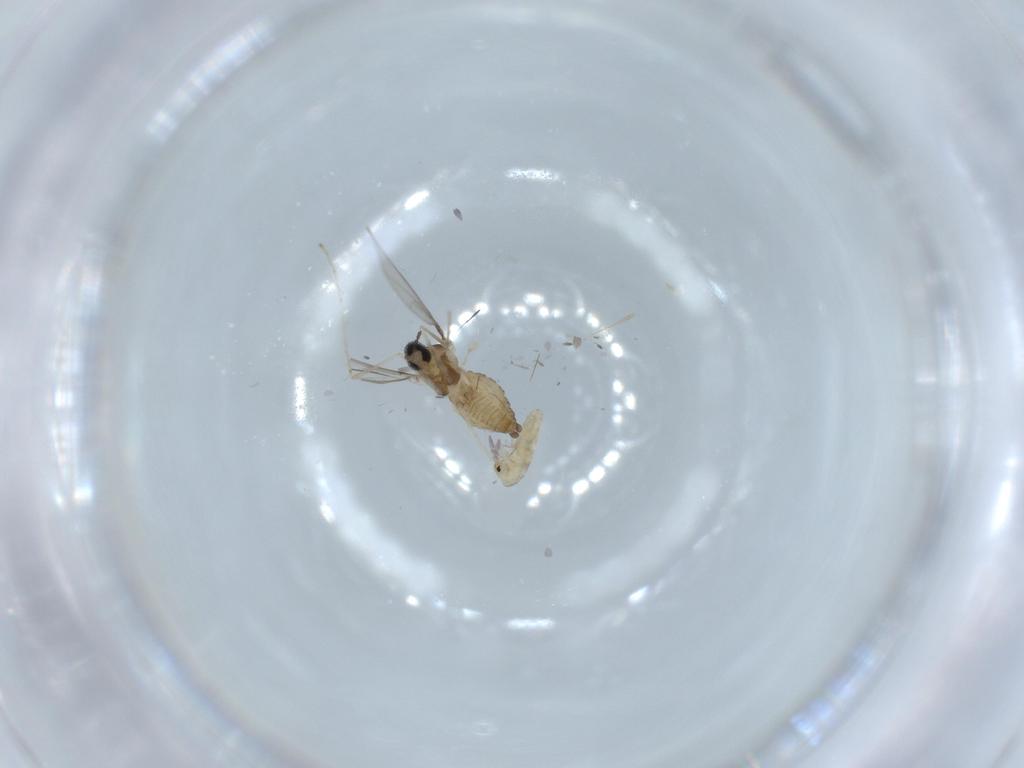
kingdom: Animalia
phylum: Arthropoda
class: Insecta
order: Diptera
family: Cecidomyiidae
